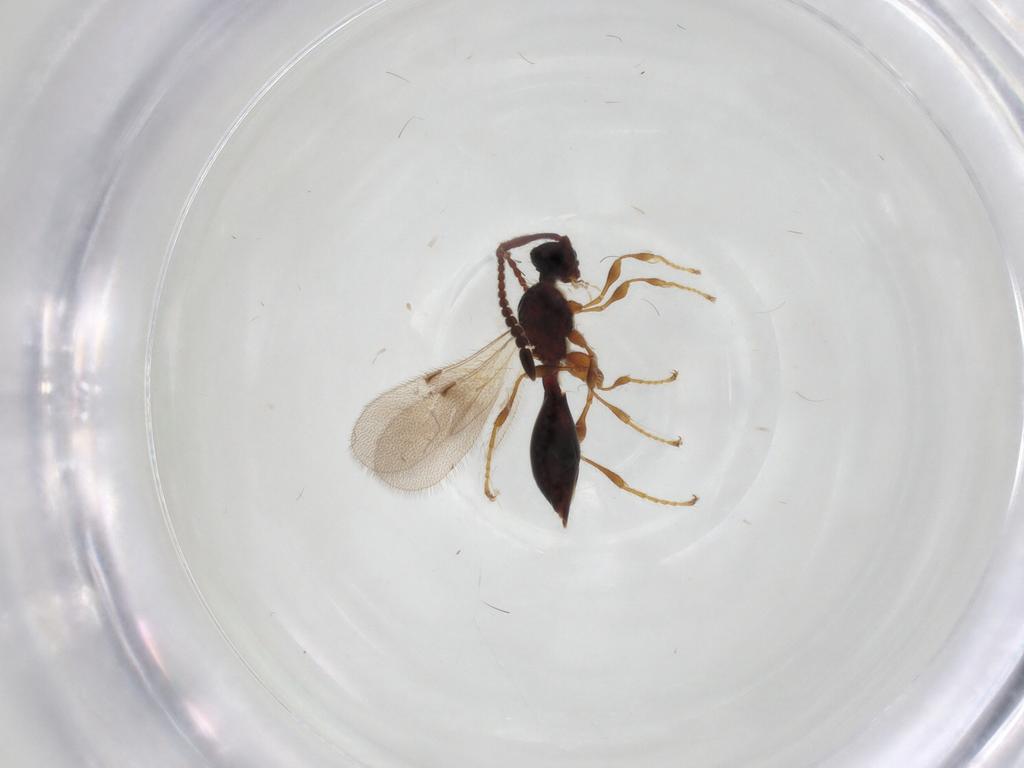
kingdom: Animalia
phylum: Arthropoda
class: Insecta
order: Hymenoptera
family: Diapriidae
